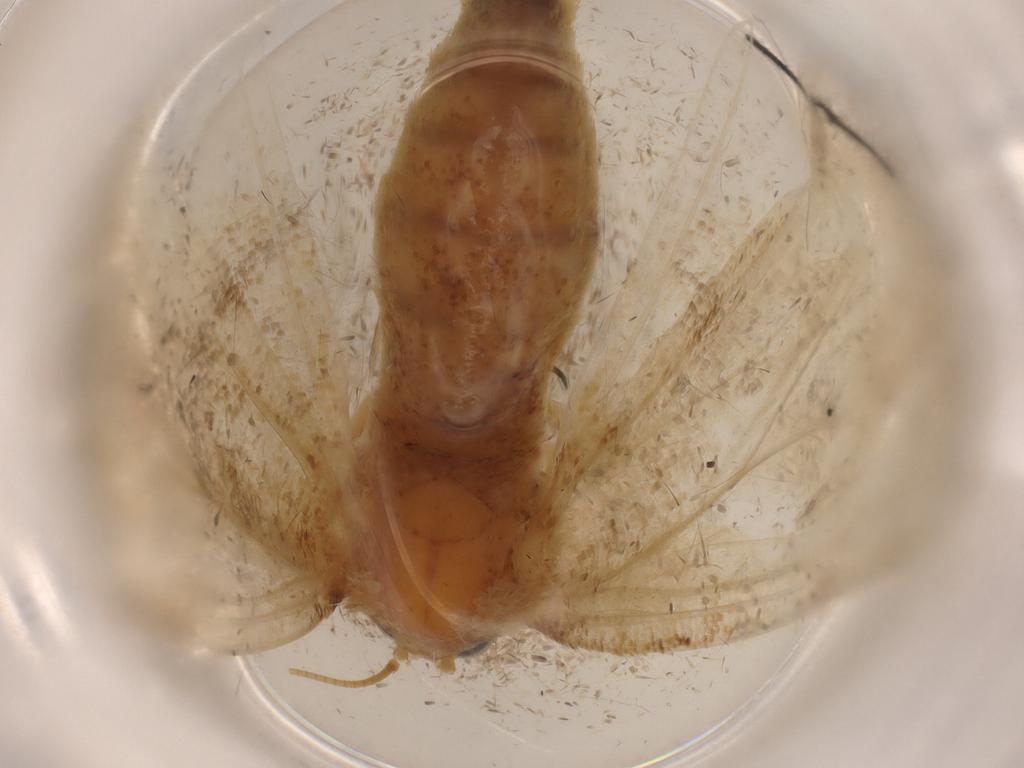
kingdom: Animalia
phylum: Arthropoda
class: Insecta
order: Lepidoptera
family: Geometridae
